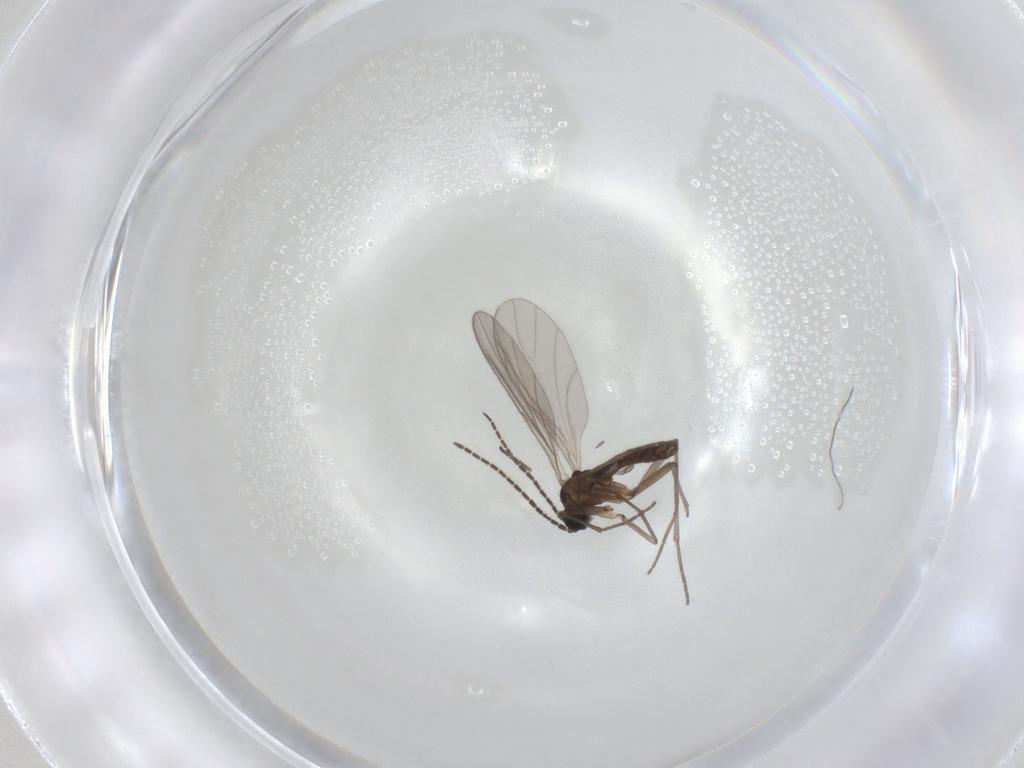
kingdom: Animalia
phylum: Arthropoda
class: Insecta
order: Diptera
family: Sciaridae
